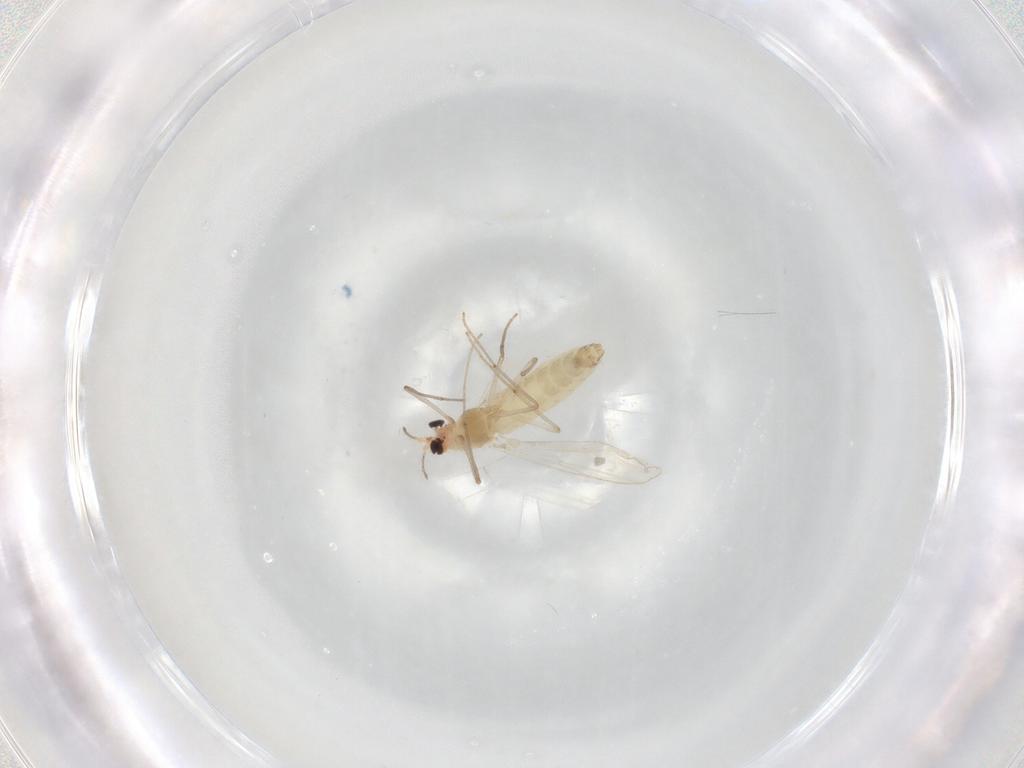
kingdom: Animalia
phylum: Arthropoda
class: Insecta
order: Diptera
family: Chironomidae
